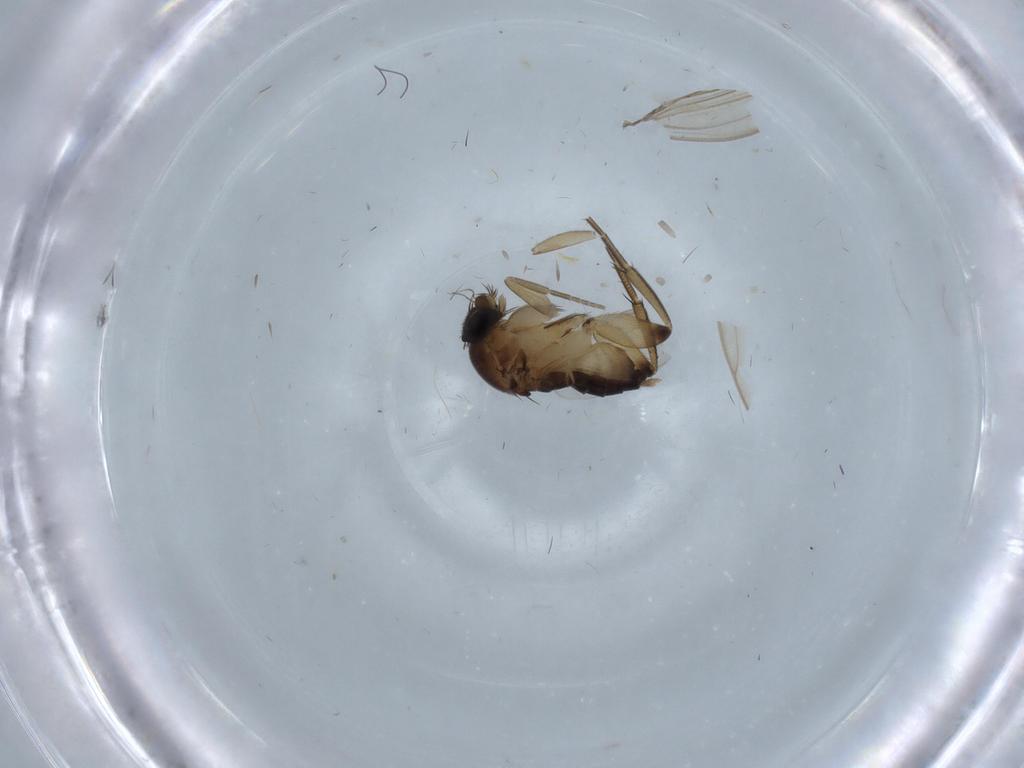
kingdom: Animalia
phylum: Arthropoda
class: Insecta
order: Diptera
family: Phoridae
